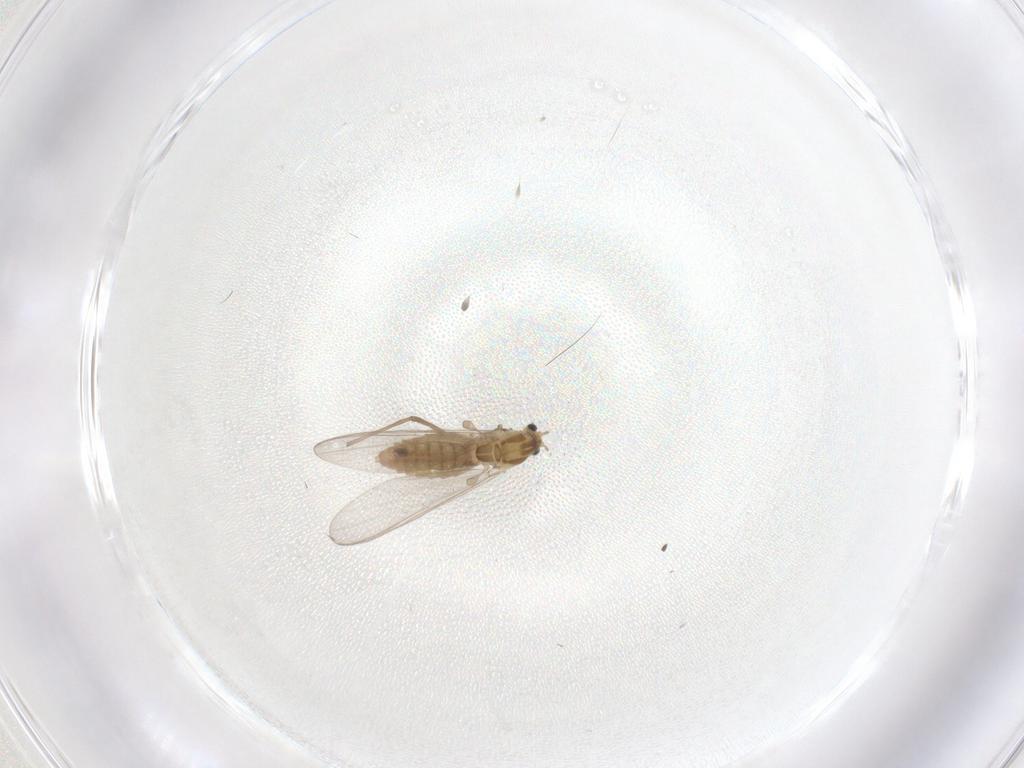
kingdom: Animalia
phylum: Arthropoda
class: Insecta
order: Diptera
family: Chironomidae
